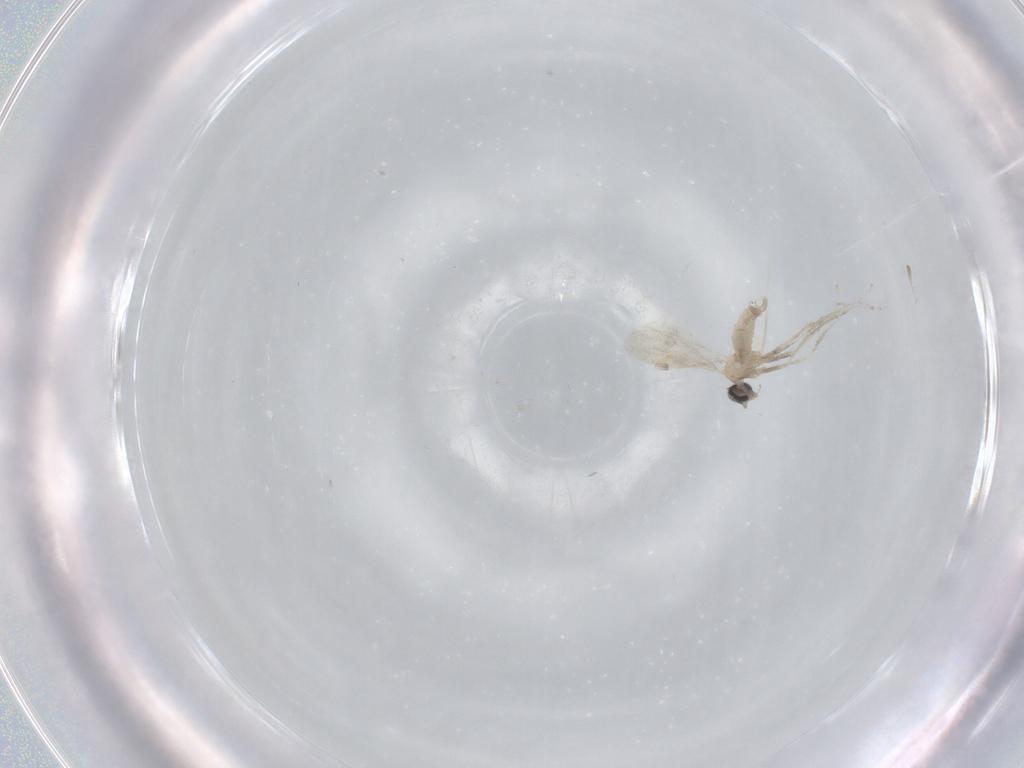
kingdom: Animalia
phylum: Arthropoda
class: Insecta
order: Diptera
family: Cecidomyiidae
